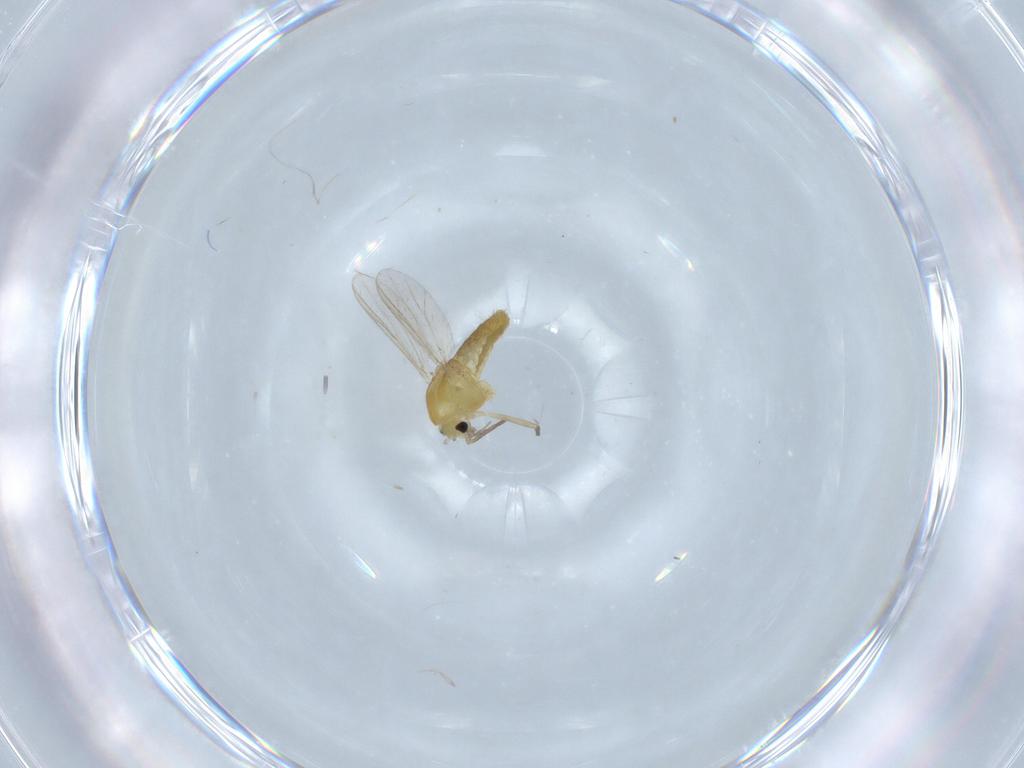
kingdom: Animalia
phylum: Arthropoda
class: Insecta
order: Diptera
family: Chironomidae
